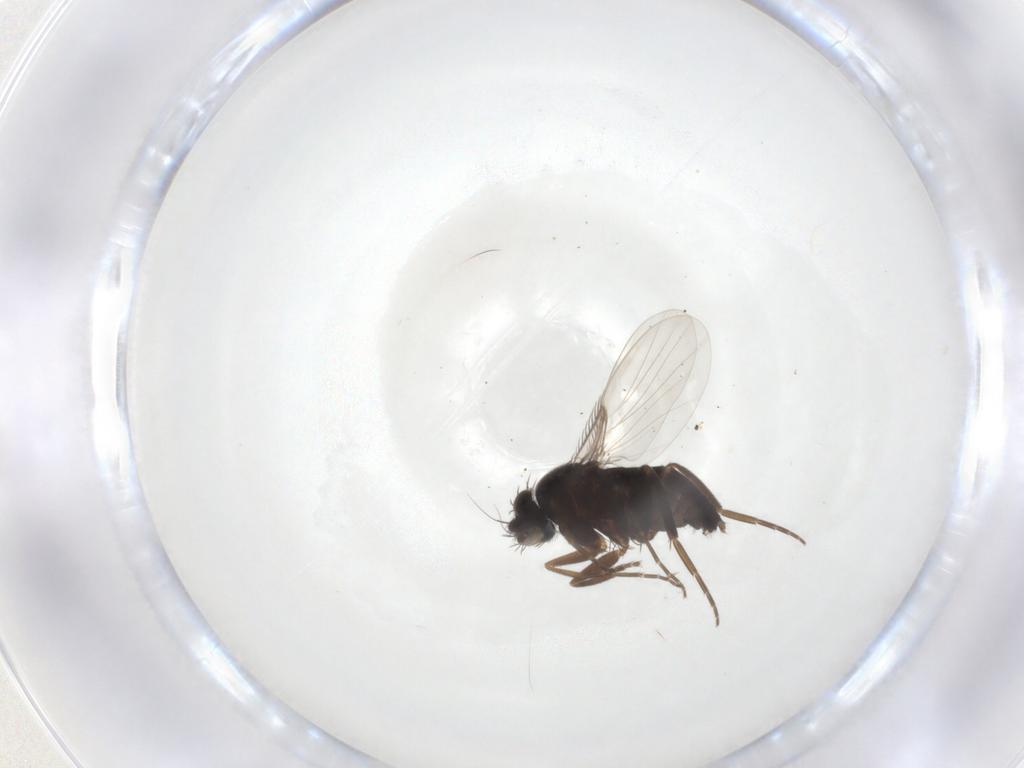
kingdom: Animalia
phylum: Arthropoda
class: Insecta
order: Diptera
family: Phoridae
